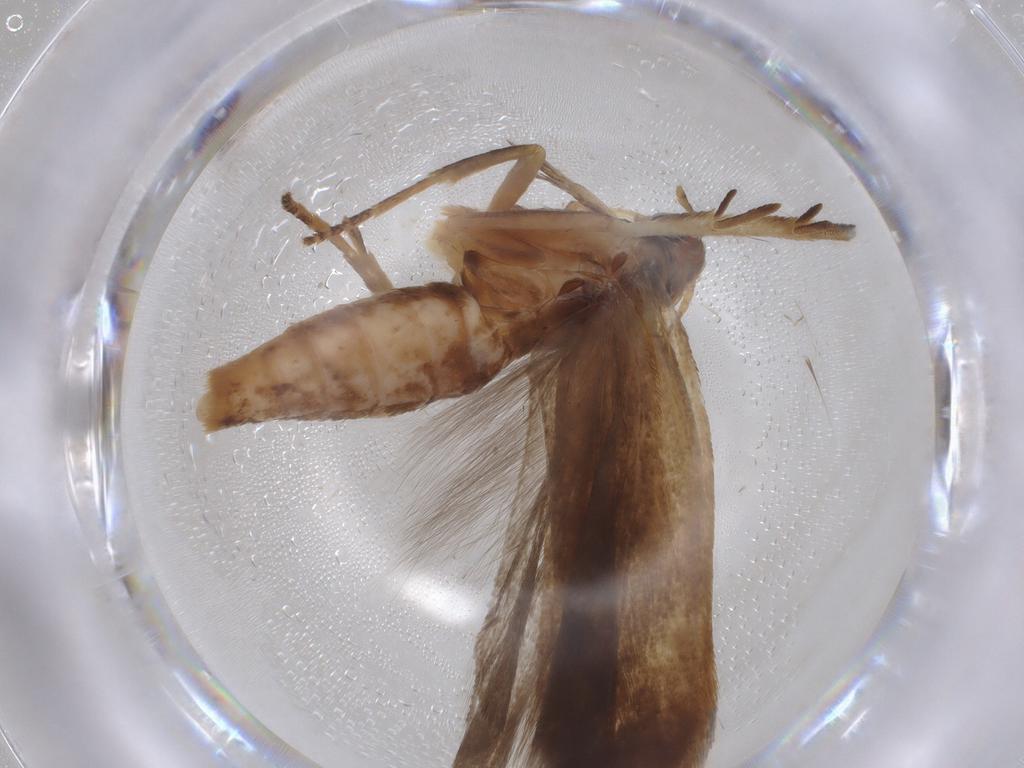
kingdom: Animalia
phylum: Arthropoda
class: Insecta
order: Lepidoptera
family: Gelechiidae
